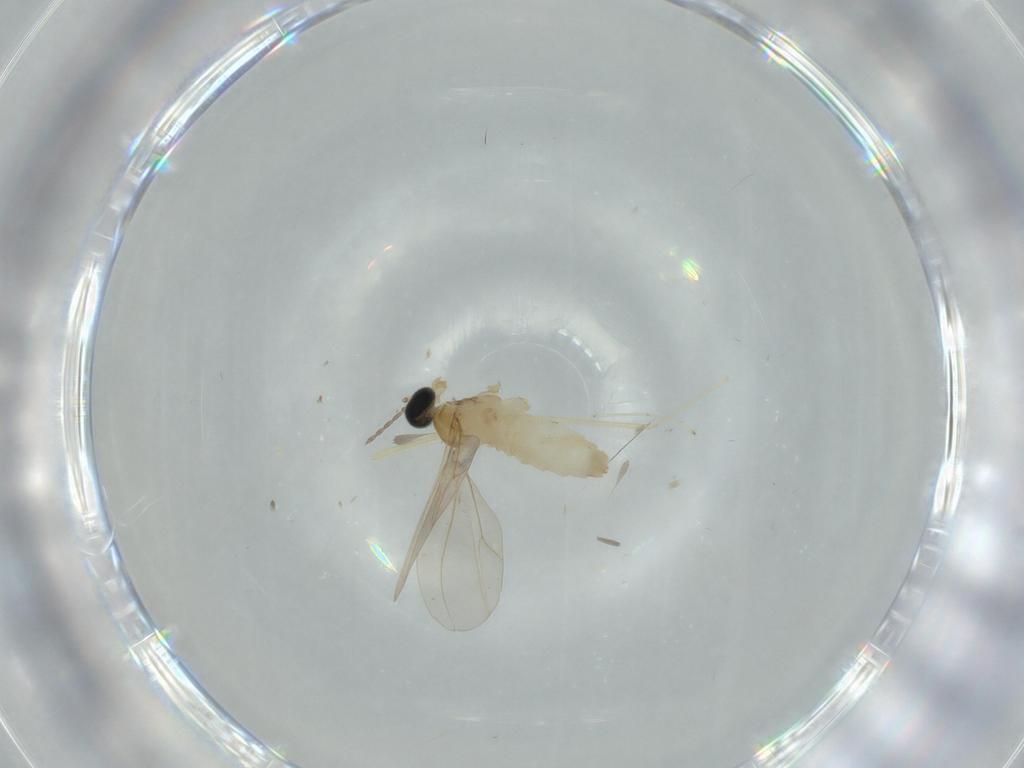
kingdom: Animalia
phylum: Arthropoda
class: Insecta
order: Diptera
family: Cecidomyiidae
